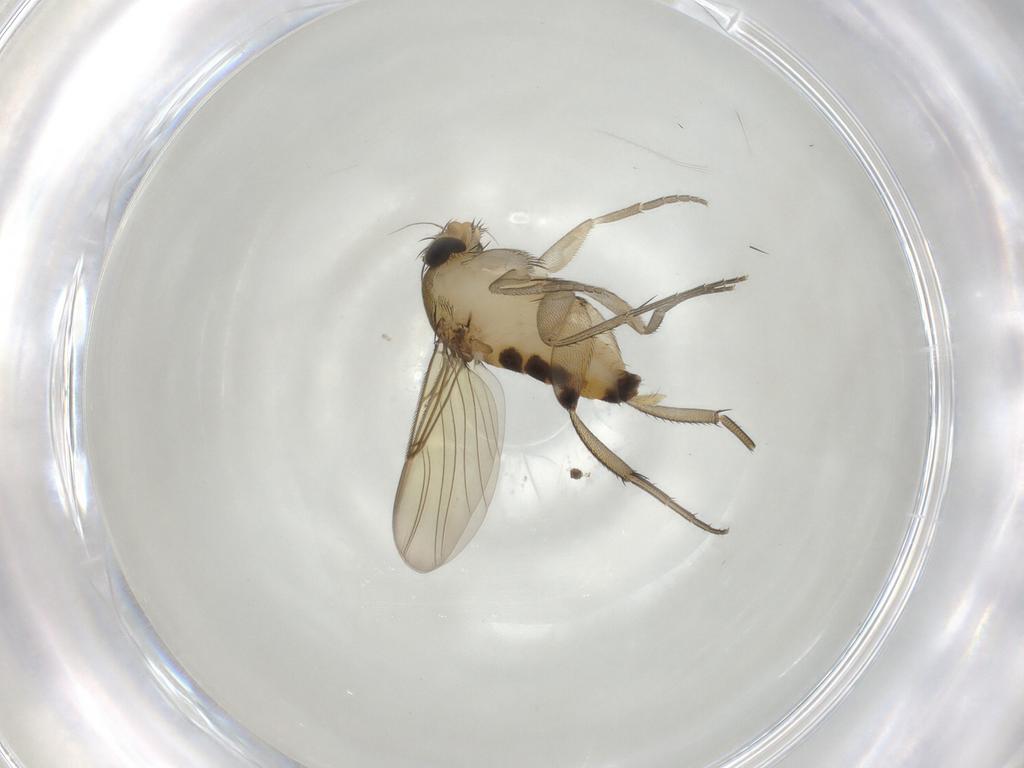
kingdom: Animalia
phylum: Arthropoda
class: Insecta
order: Diptera
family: Phoridae
